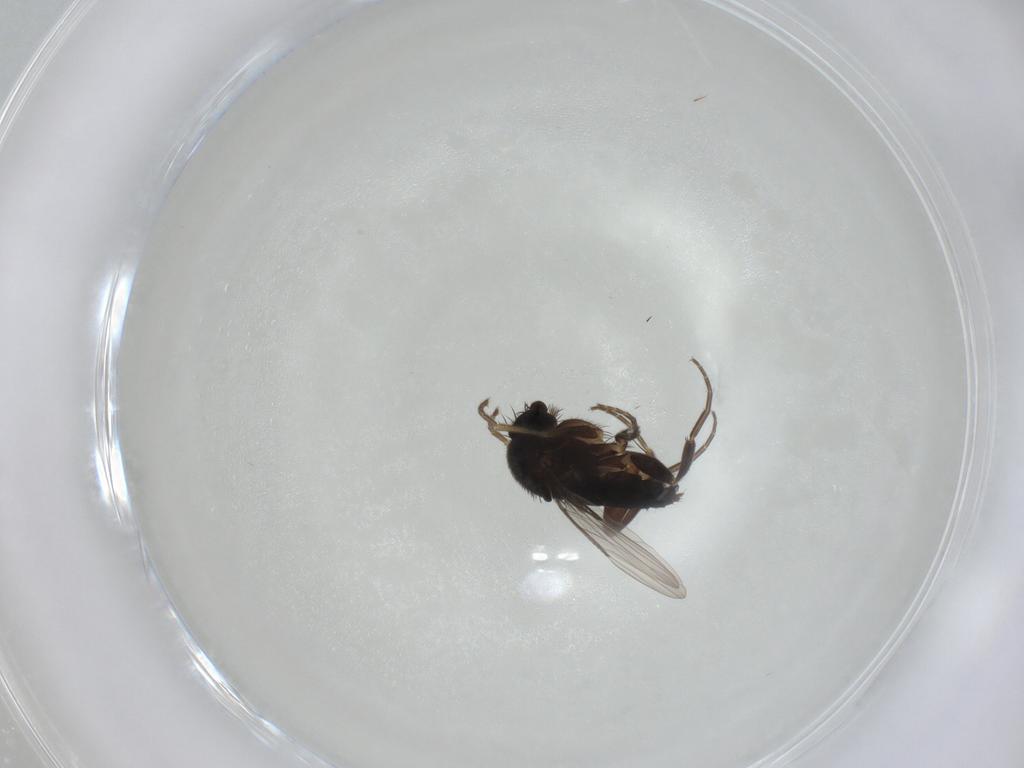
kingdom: Animalia
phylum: Arthropoda
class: Insecta
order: Diptera
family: Phoridae
